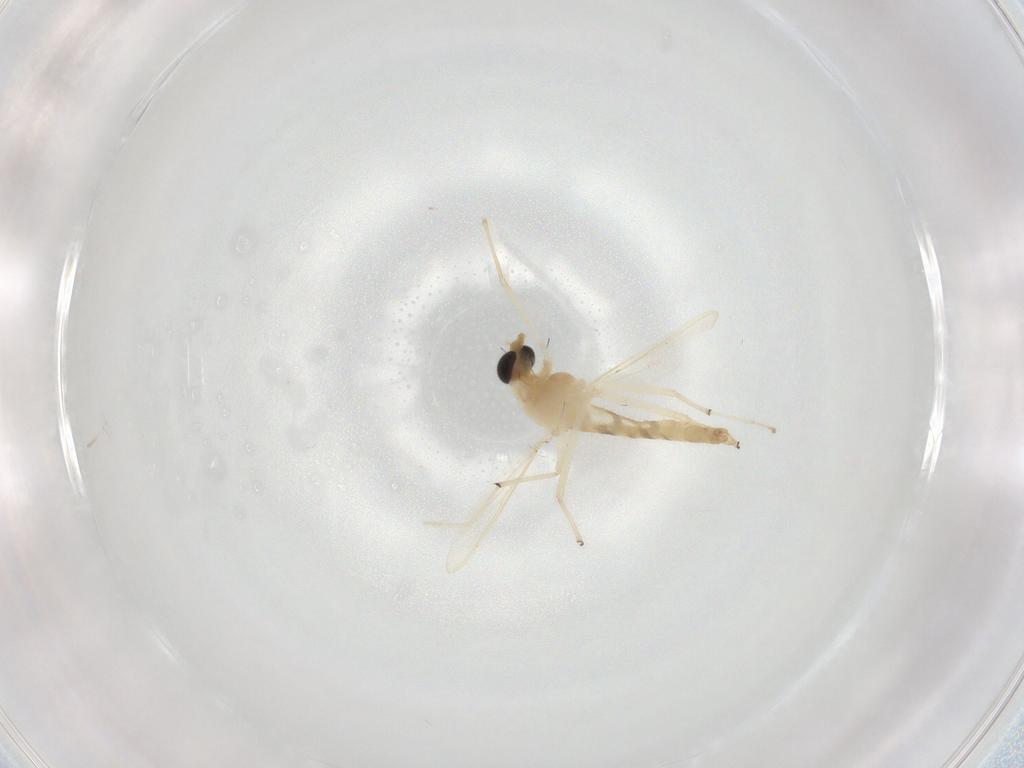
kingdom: Animalia
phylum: Arthropoda
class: Insecta
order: Diptera
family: Chironomidae
